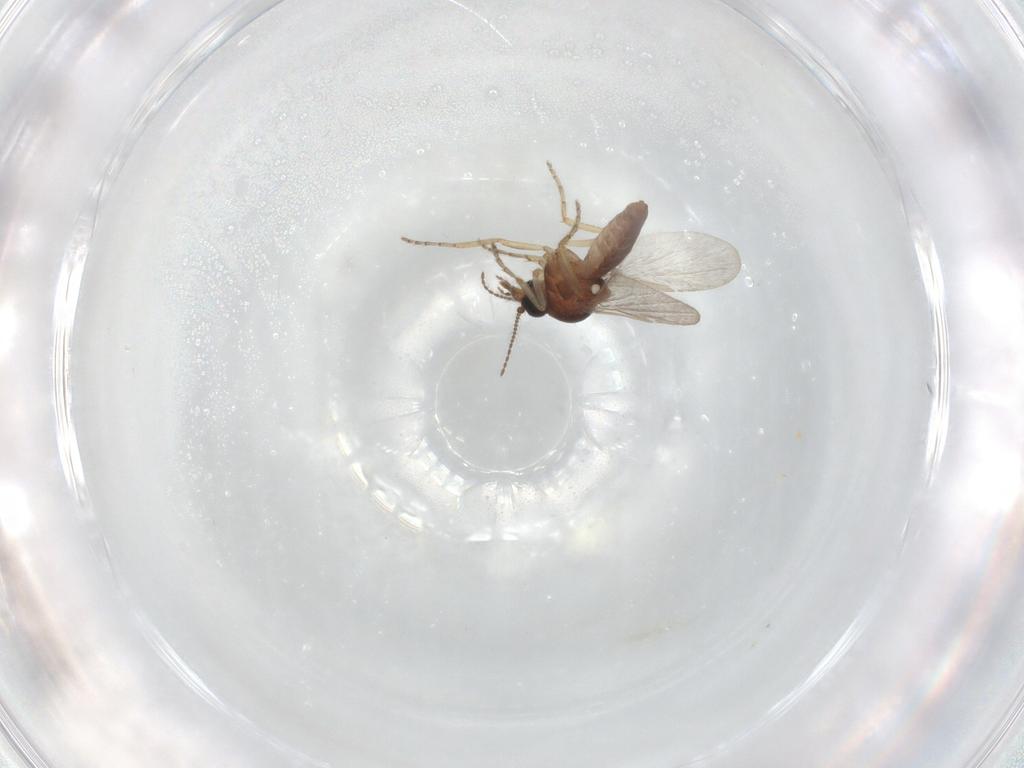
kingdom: Animalia
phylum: Arthropoda
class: Insecta
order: Diptera
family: Ceratopogonidae
